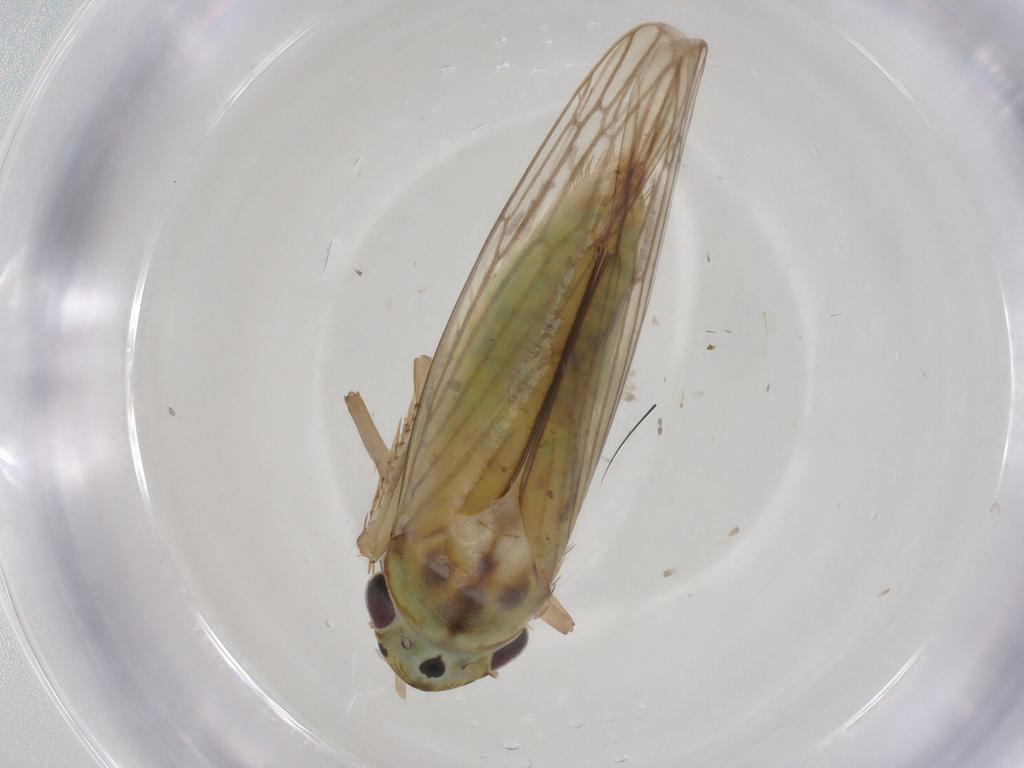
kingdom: Animalia
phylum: Arthropoda
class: Insecta
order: Hemiptera
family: Cicadellidae
